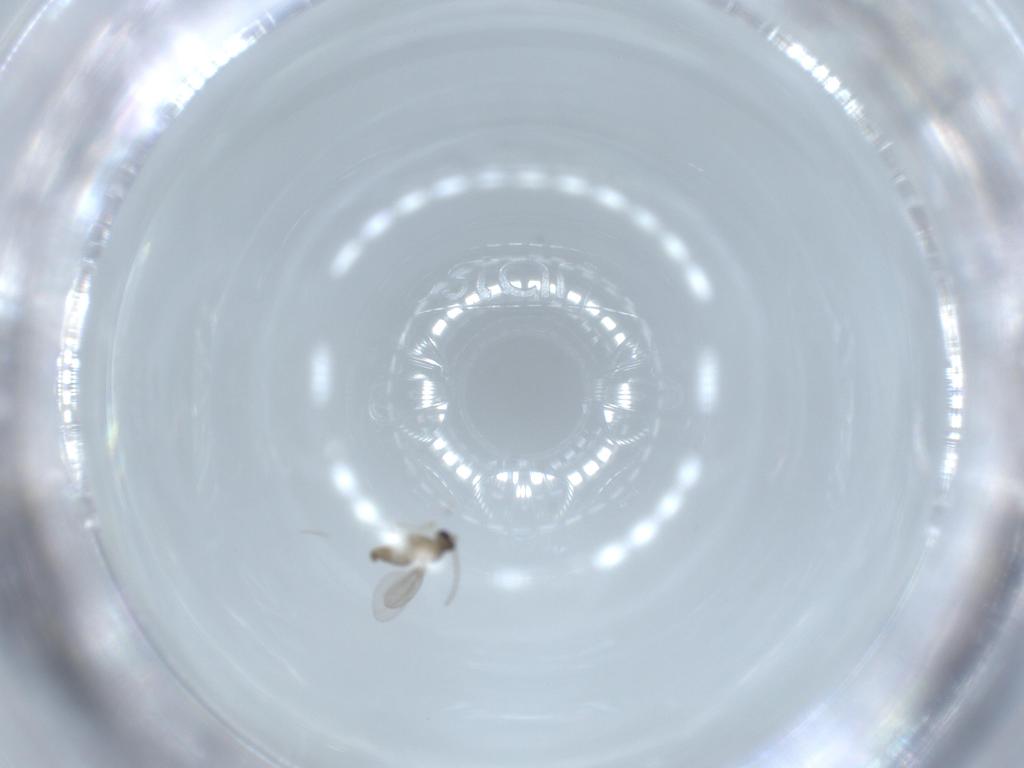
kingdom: Animalia
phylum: Arthropoda
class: Insecta
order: Diptera
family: Cecidomyiidae
